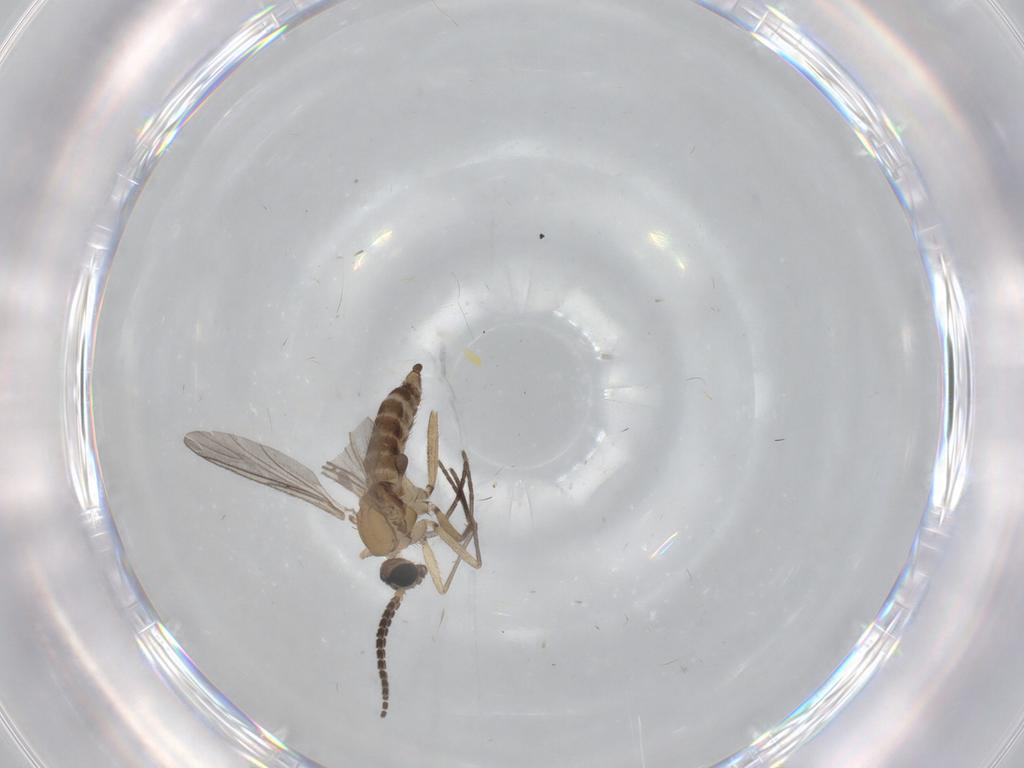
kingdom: Animalia
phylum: Arthropoda
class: Insecta
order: Diptera
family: Sciaridae
